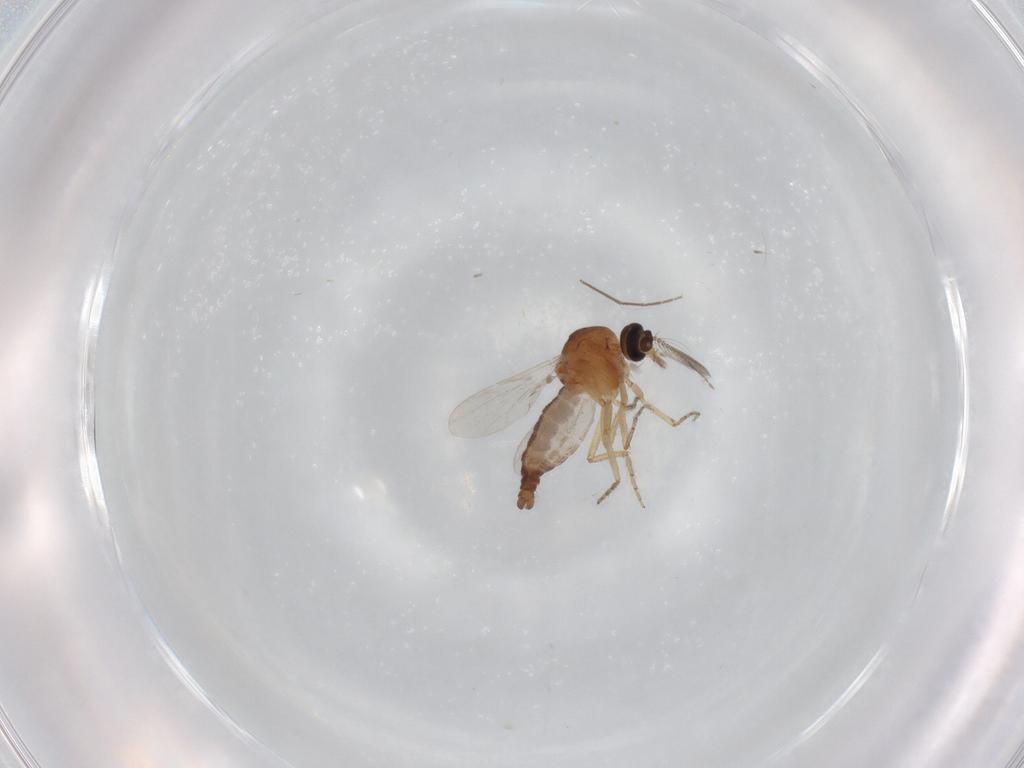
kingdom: Animalia
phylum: Arthropoda
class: Insecta
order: Diptera
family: Ceratopogonidae
